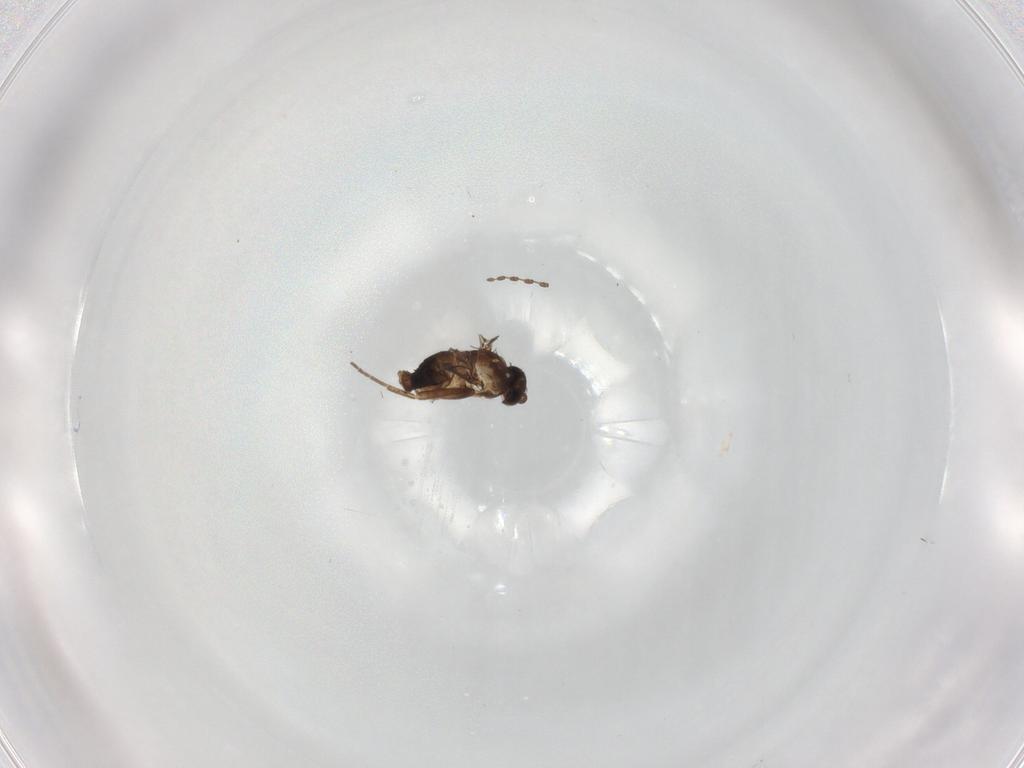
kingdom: Animalia
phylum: Arthropoda
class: Insecta
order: Diptera
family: Cecidomyiidae
